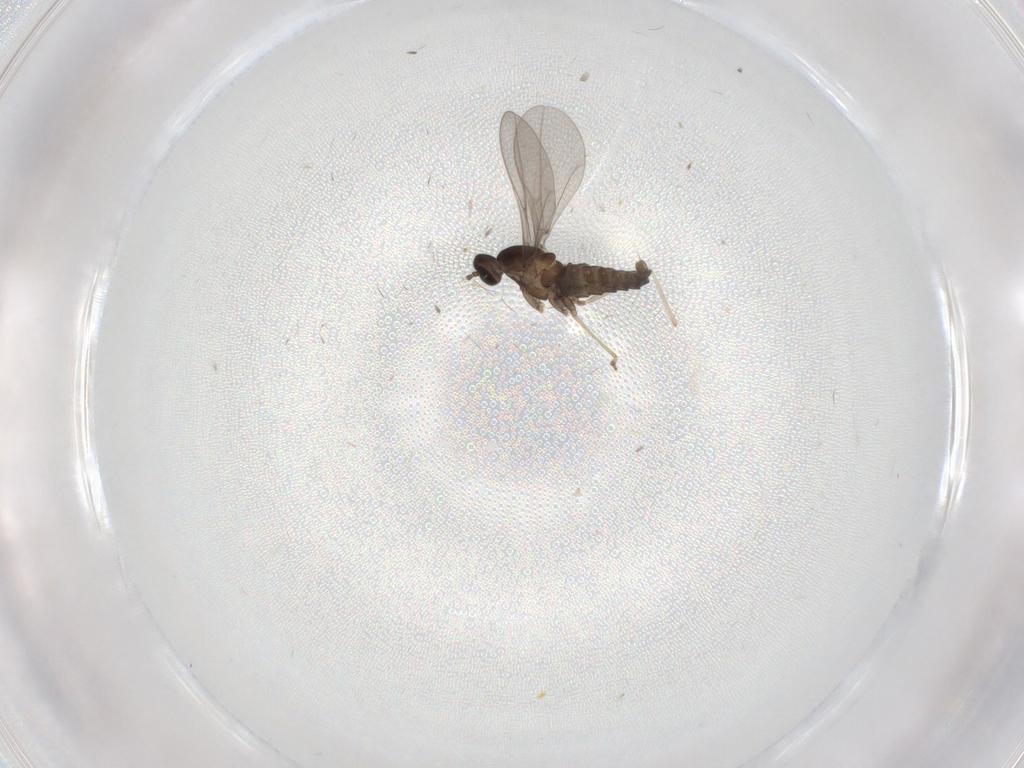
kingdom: Animalia
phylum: Arthropoda
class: Insecta
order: Diptera
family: Cecidomyiidae
